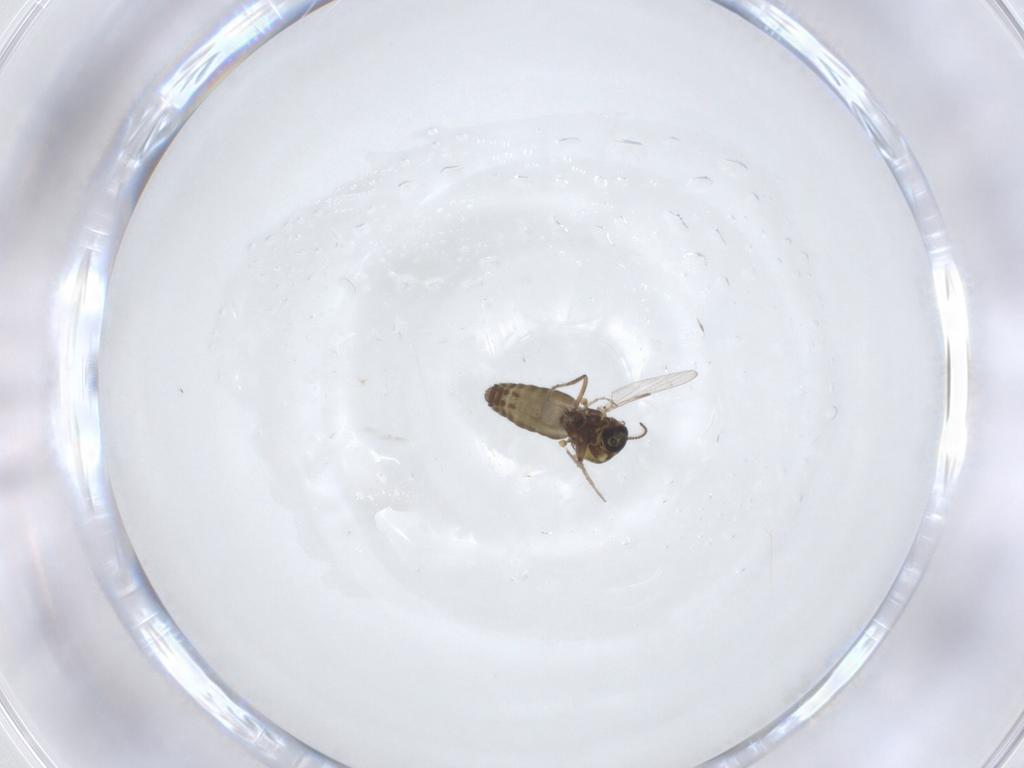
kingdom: Animalia
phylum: Arthropoda
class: Insecta
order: Diptera
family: Ceratopogonidae
